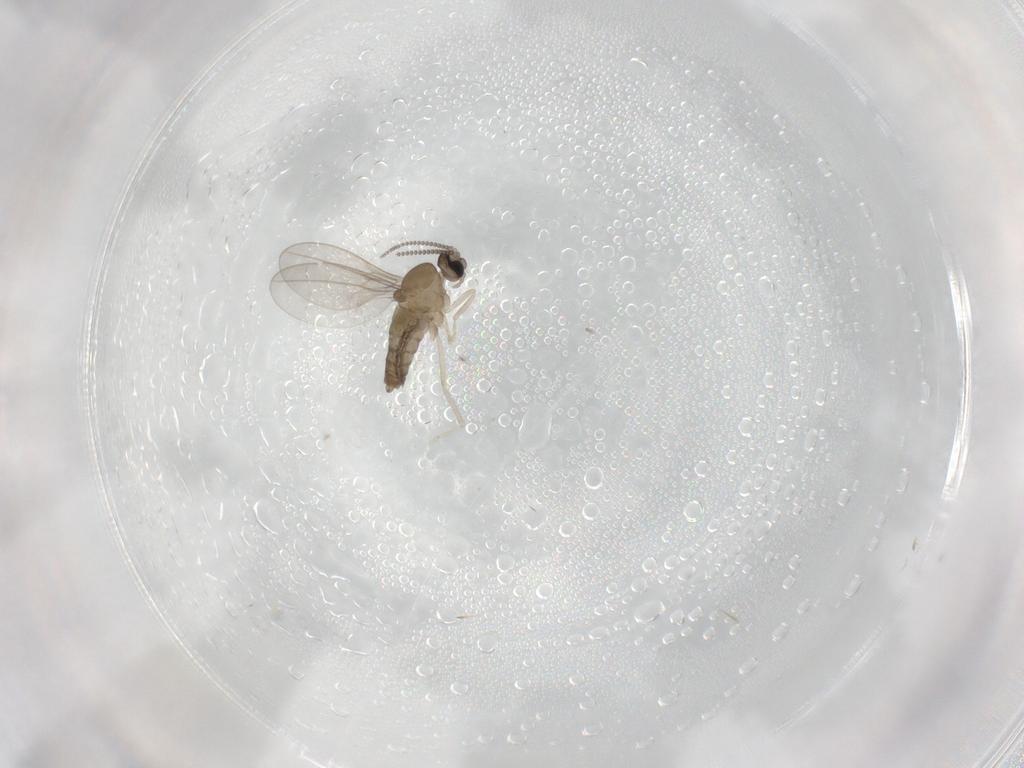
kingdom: Animalia
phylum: Arthropoda
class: Insecta
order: Diptera
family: Cecidomyiidae
